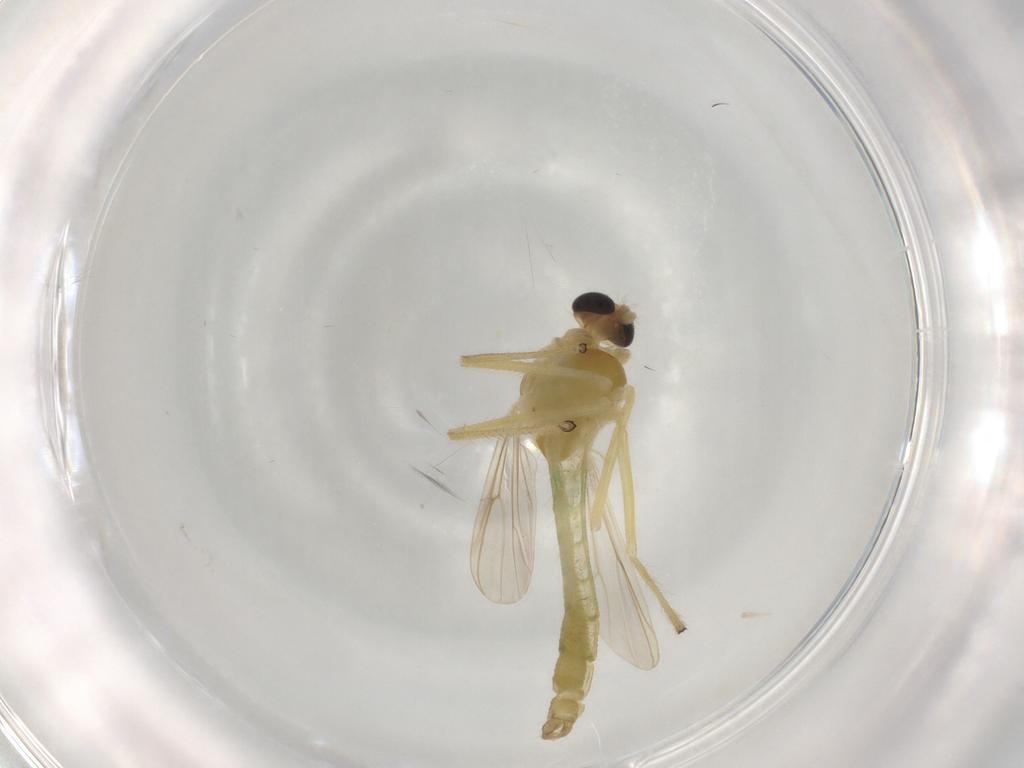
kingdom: Animalia
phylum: Arthropoda
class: Insecta
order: Diptera
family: Chironomidae
